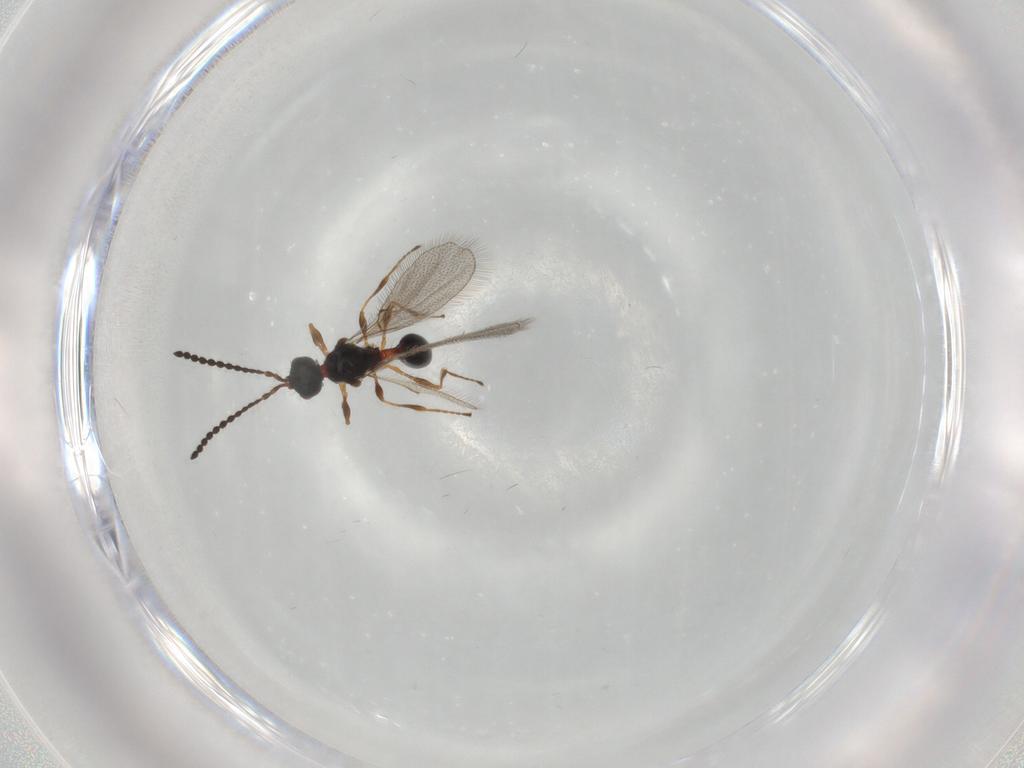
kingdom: Animalia
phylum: Arthropoda
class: Insecta
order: Hymenoptera
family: Diapriidae
